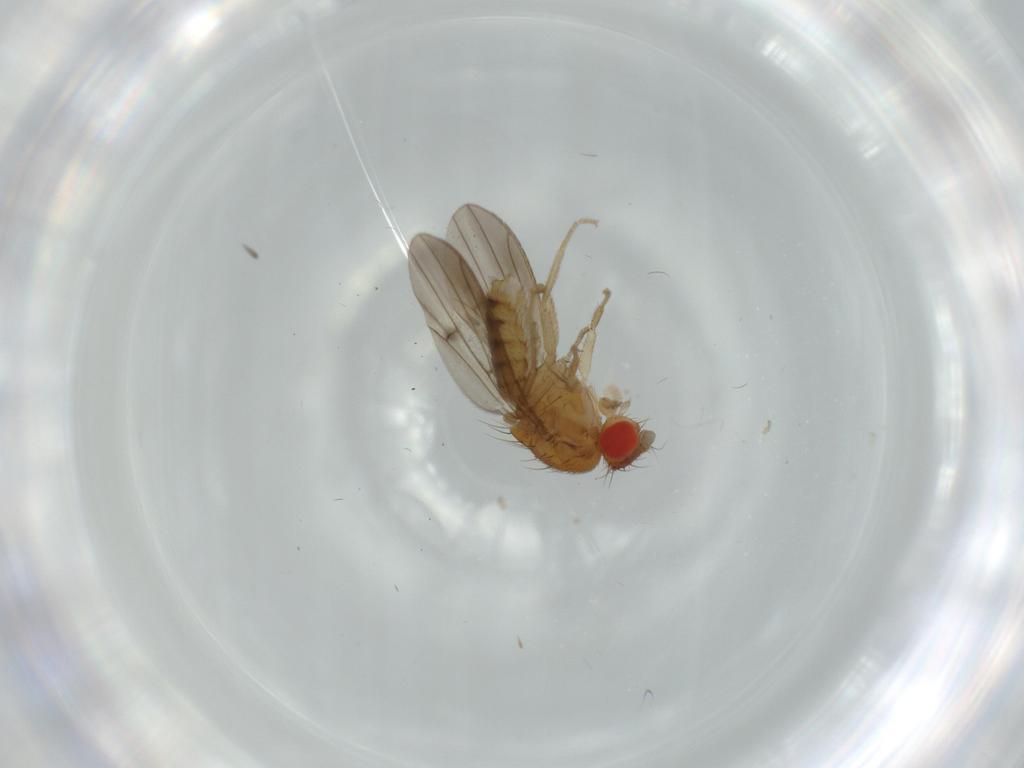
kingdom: Animalia
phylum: Arthropoda
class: Insecta
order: Diptera
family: Drosophilidae
